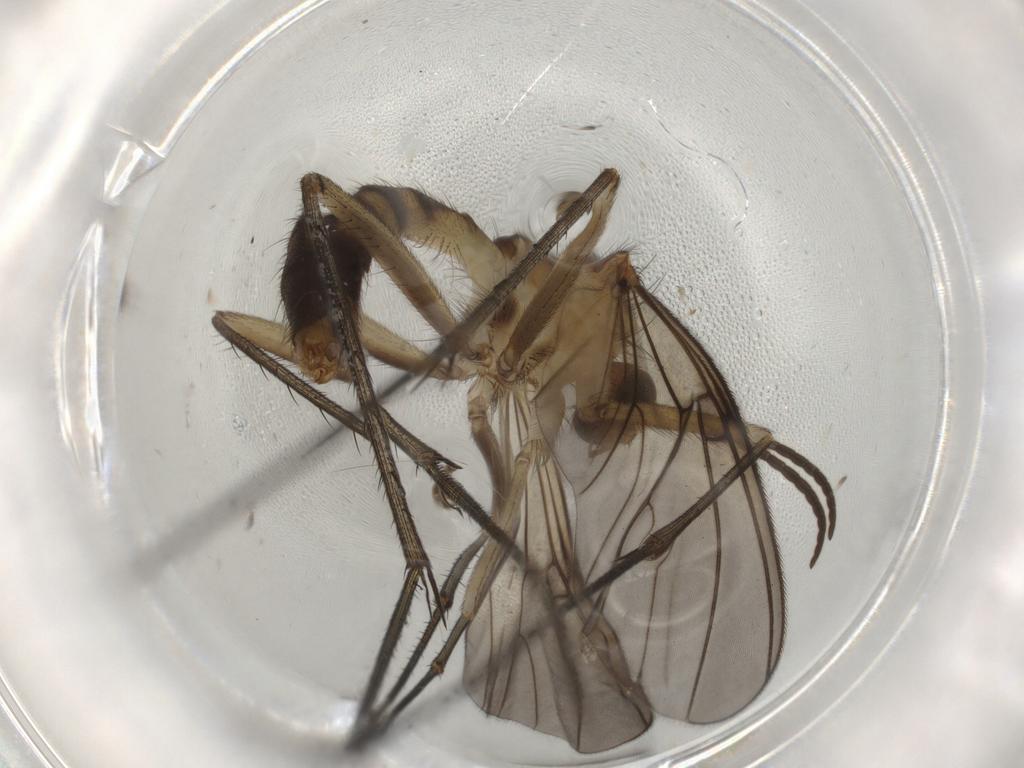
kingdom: Animalia
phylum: Arthropoda
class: Insecta
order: Diptera
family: Mycetophilidae
